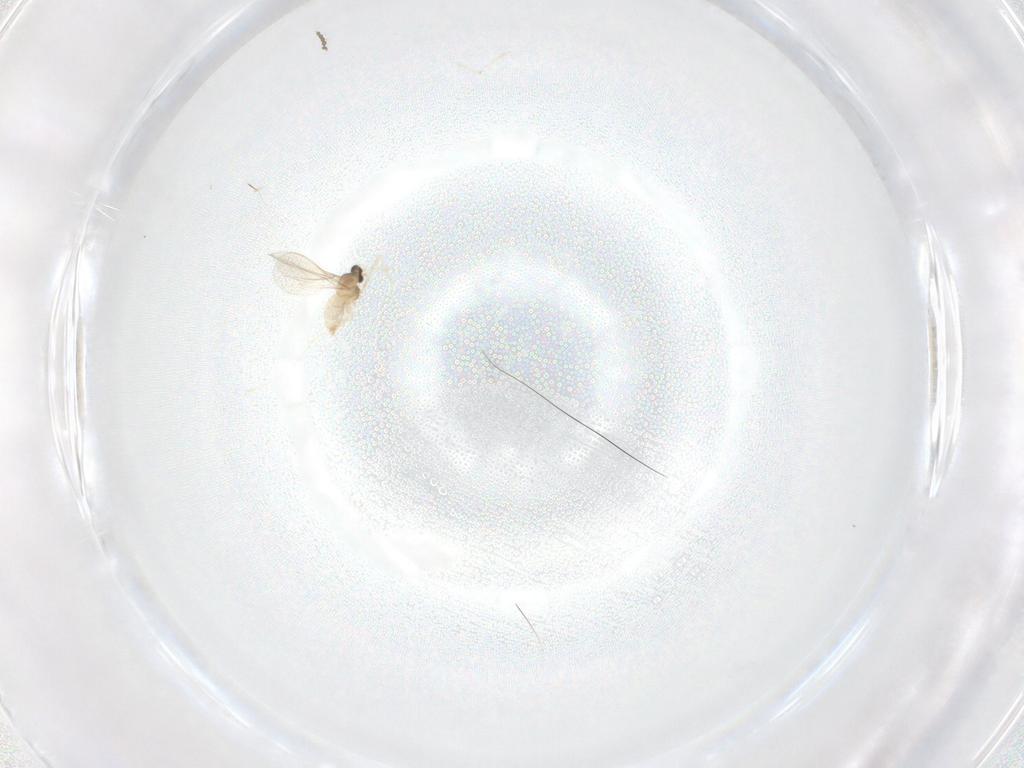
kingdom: Animalia
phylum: Arthropoda
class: Insecta
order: Diptera
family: Cecidomyiidae
